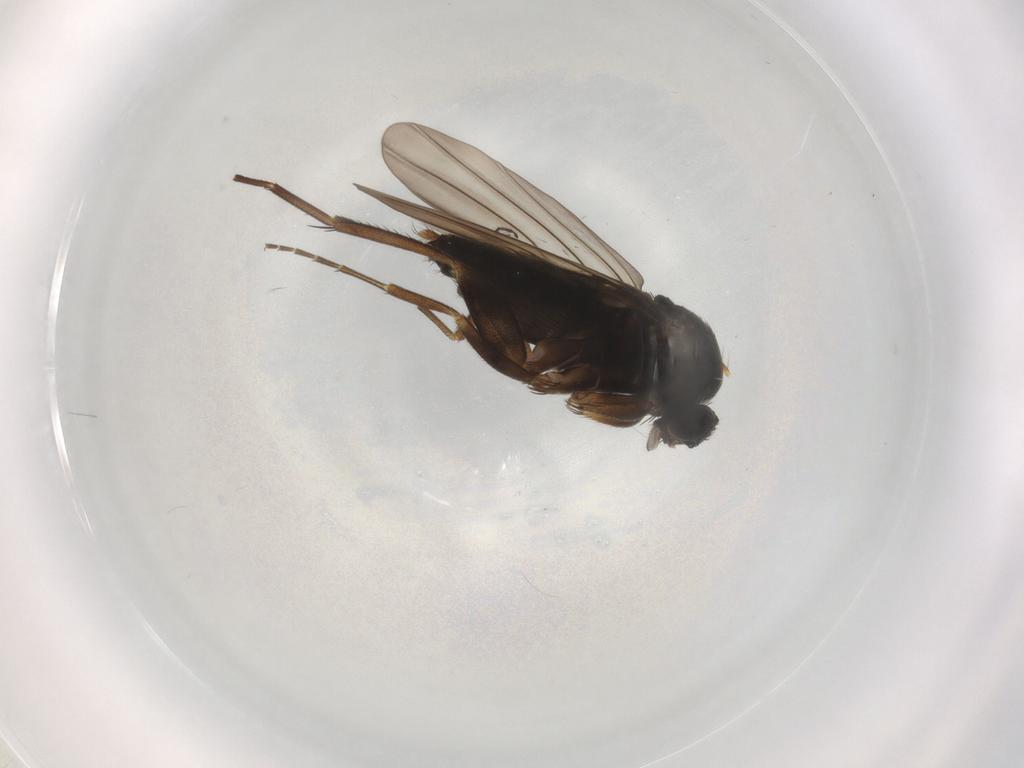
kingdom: Animalia
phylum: Arthropoda
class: Insecta
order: Diptera
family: Phoridae
